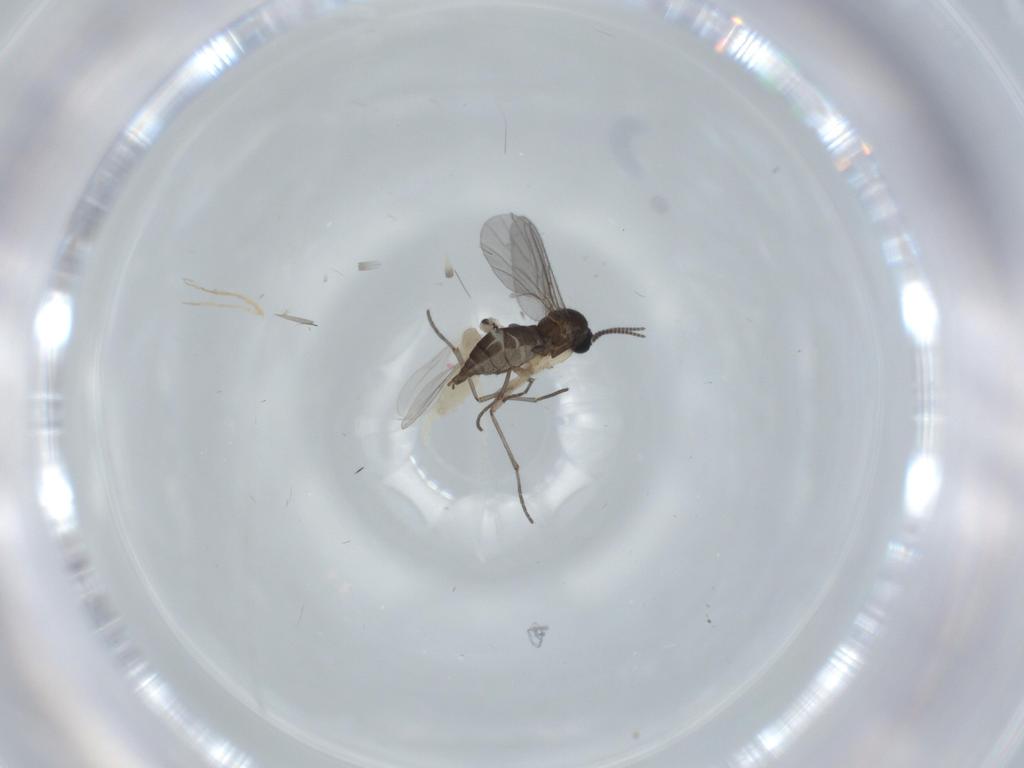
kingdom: Animalia
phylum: Arthropoda
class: Insecta
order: Diptera
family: Sciaridae
